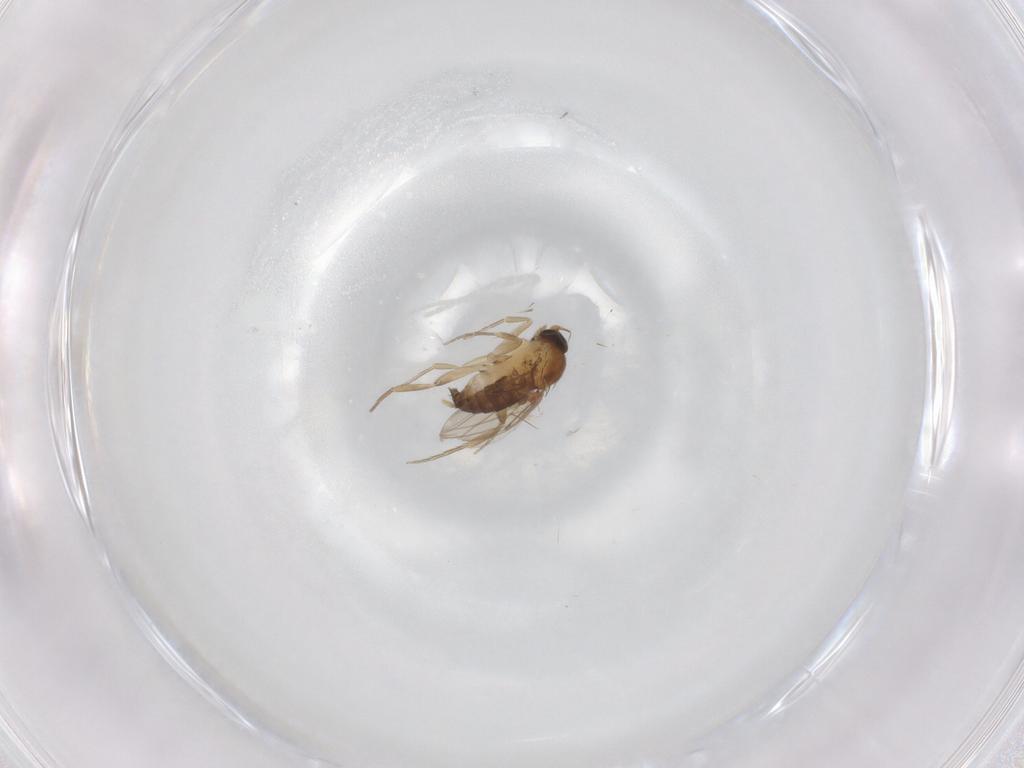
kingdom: Animalia
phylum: Arthropoda
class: Insecta
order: Diptera
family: Phoridae
